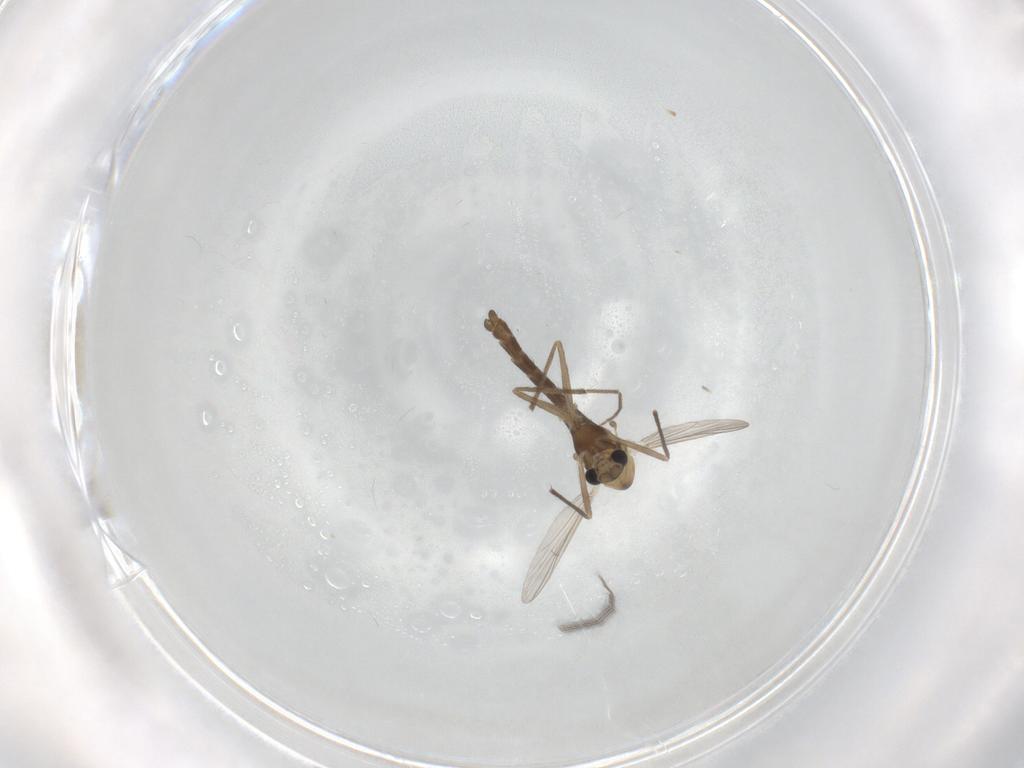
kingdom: Animalia
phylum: Arthropoda
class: Insecta
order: Diptera
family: Chironomidae
